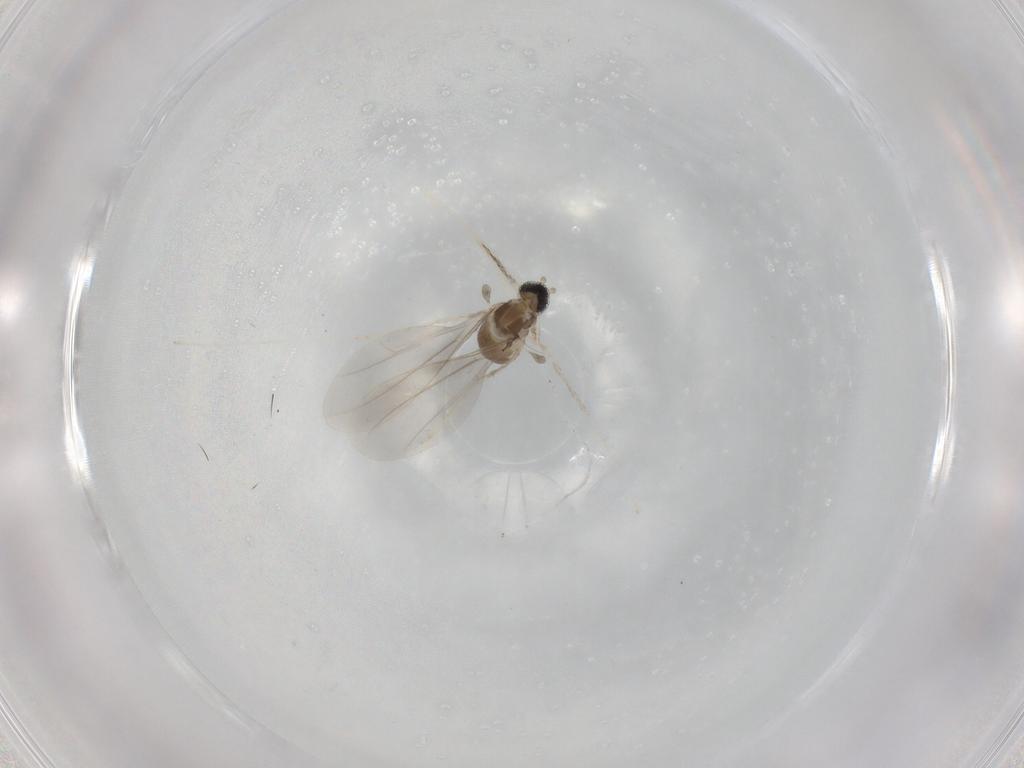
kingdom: Animalia
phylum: Arthropoda
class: Insecta
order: Diptera
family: Cecidomyiidae
